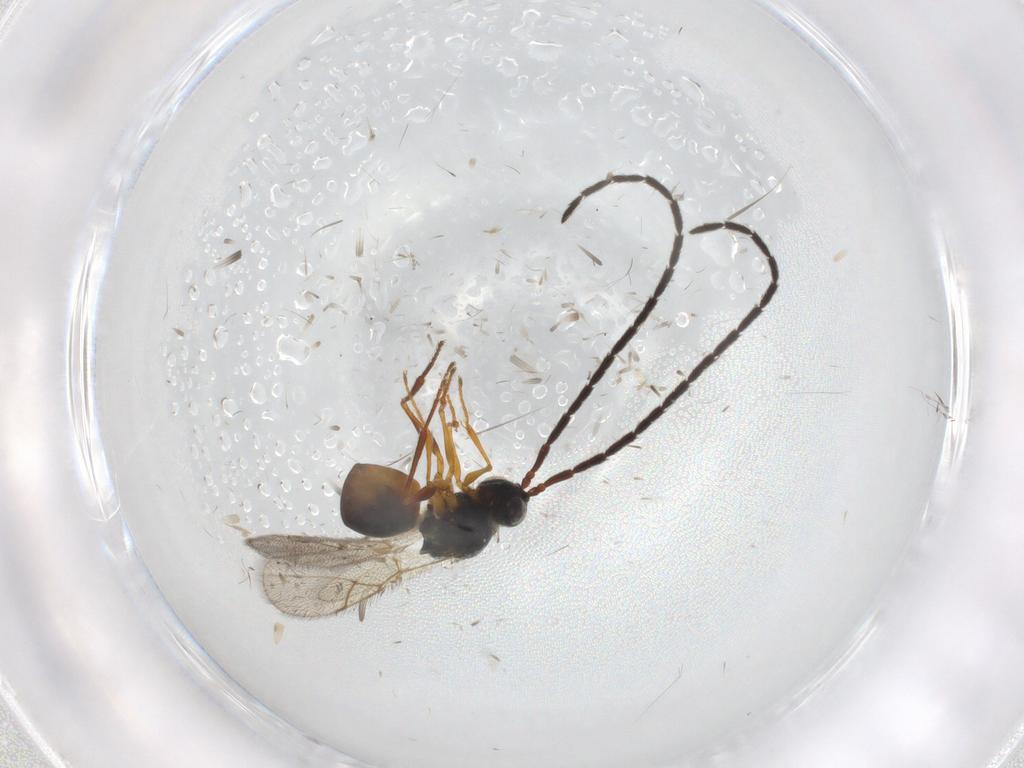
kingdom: Animalia
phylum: Arthropoda
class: Insecta
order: Hymenoptera
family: Figitidae
